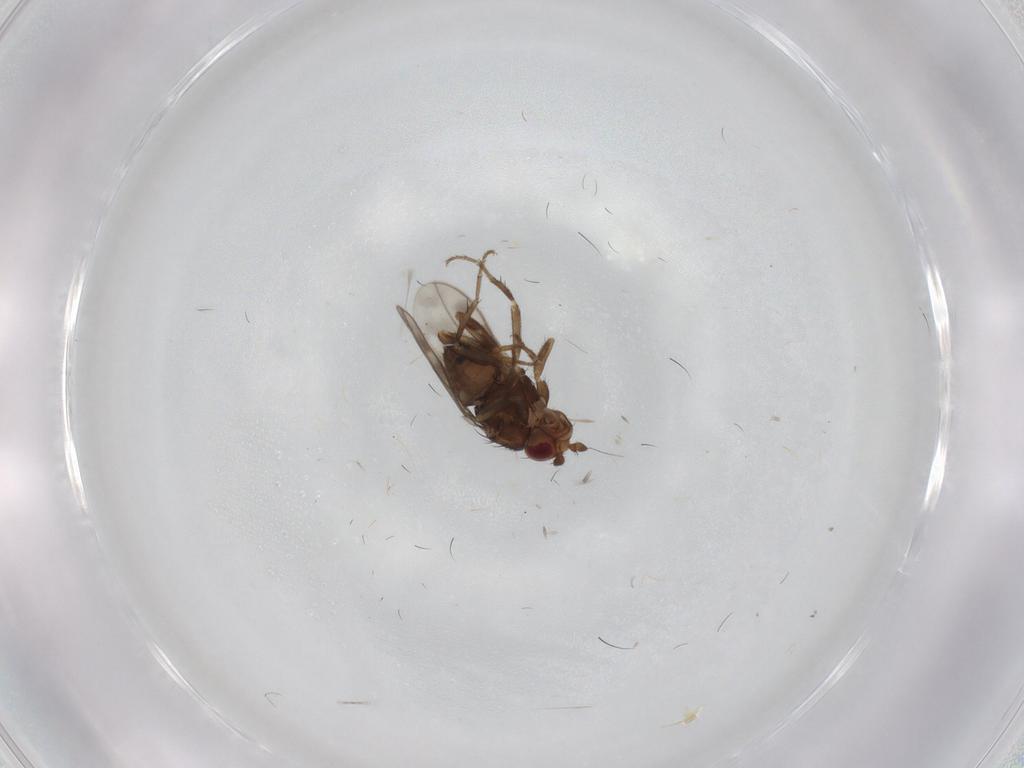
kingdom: Animalia
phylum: Arthropoda
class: Insecta
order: Diptera
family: Sphaeroceridae
